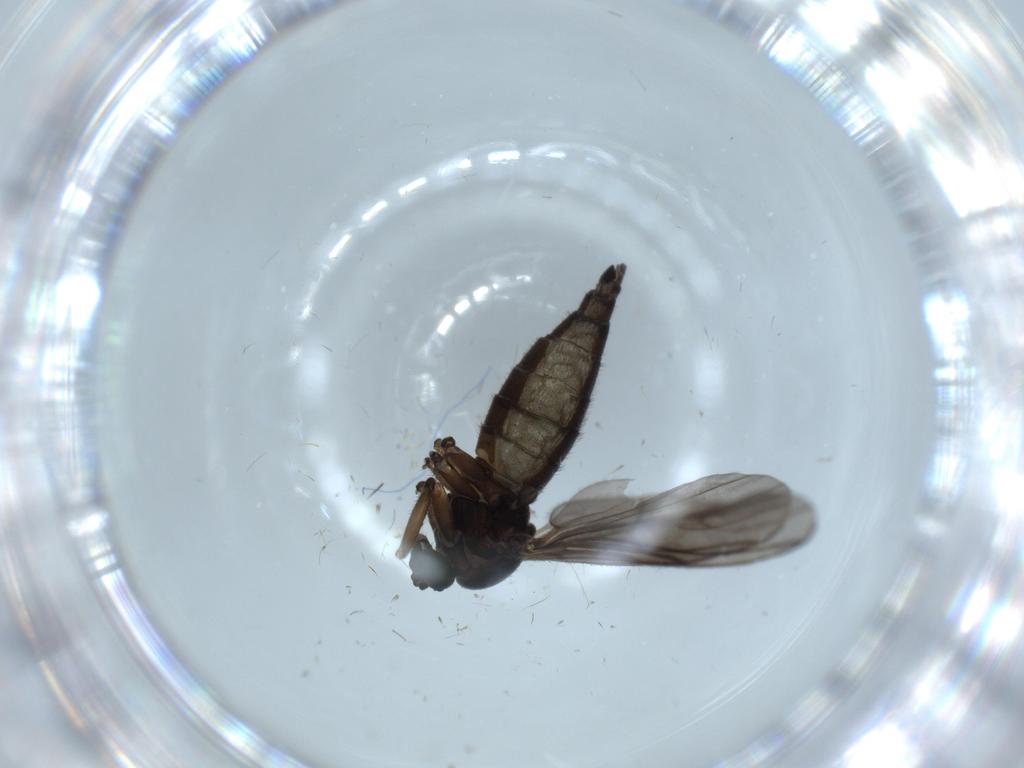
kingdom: Animalia
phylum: Arthropoda
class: Insecta
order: Diptera
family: Sciaridae
